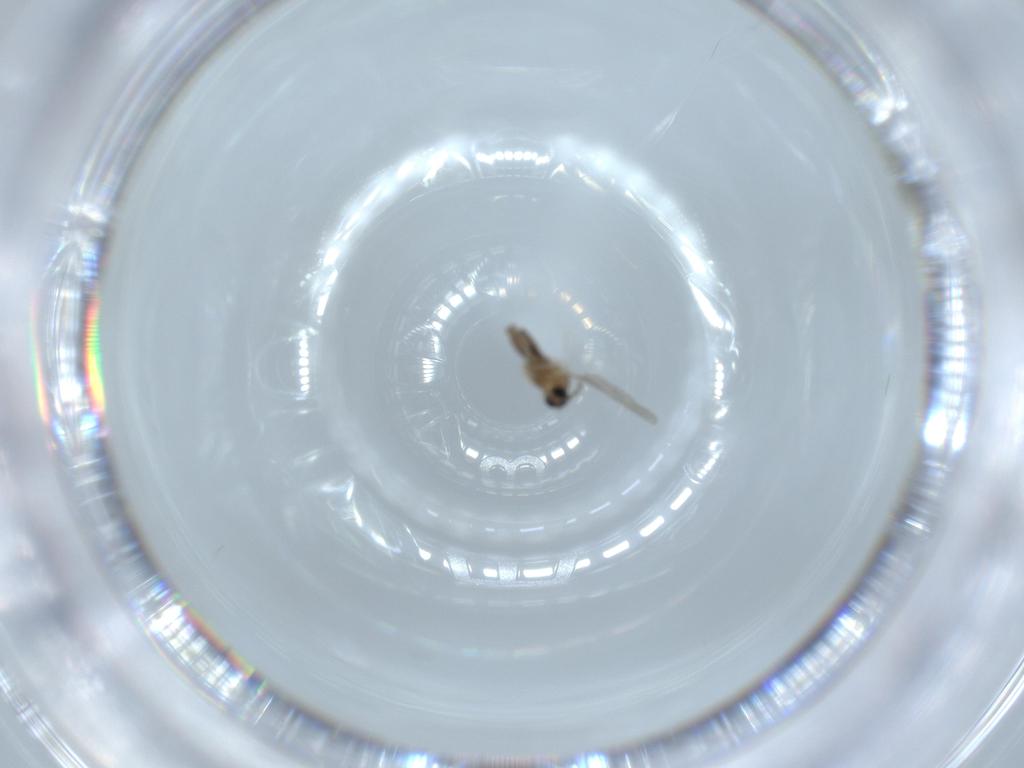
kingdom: Animalia
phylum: Arthropoda
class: Insecta
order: Diptera
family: Cecidomyiidae
